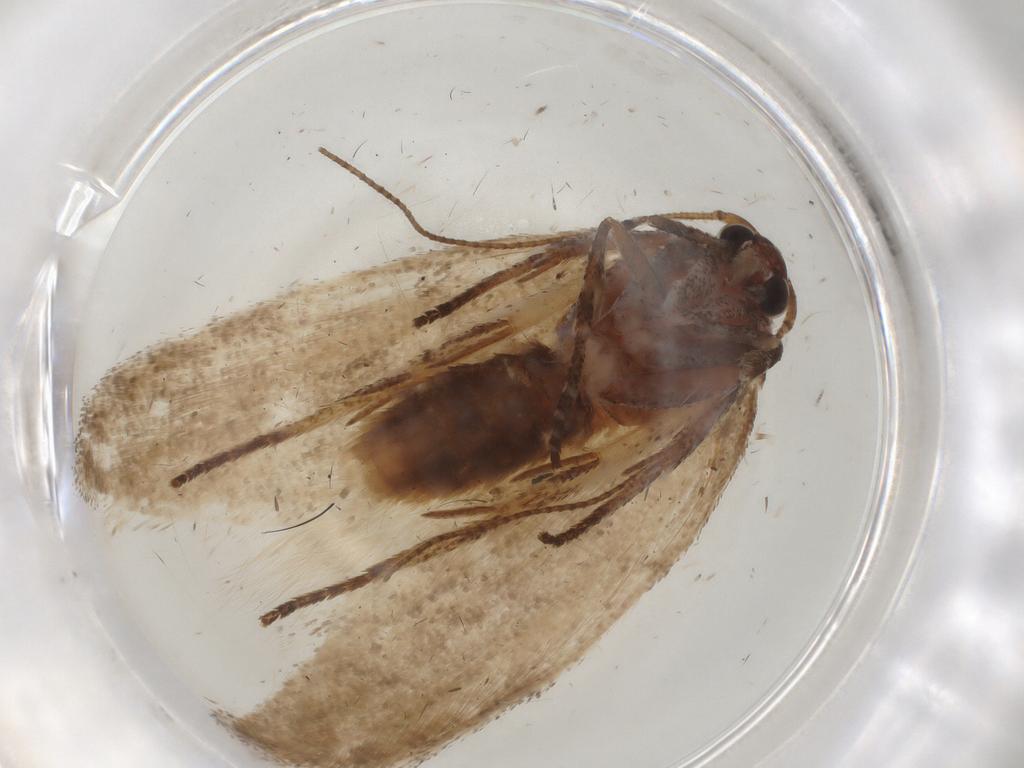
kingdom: Animalia
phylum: Arthropoda
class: Insecta
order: Lepidoptera
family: Cosmopterigidae
